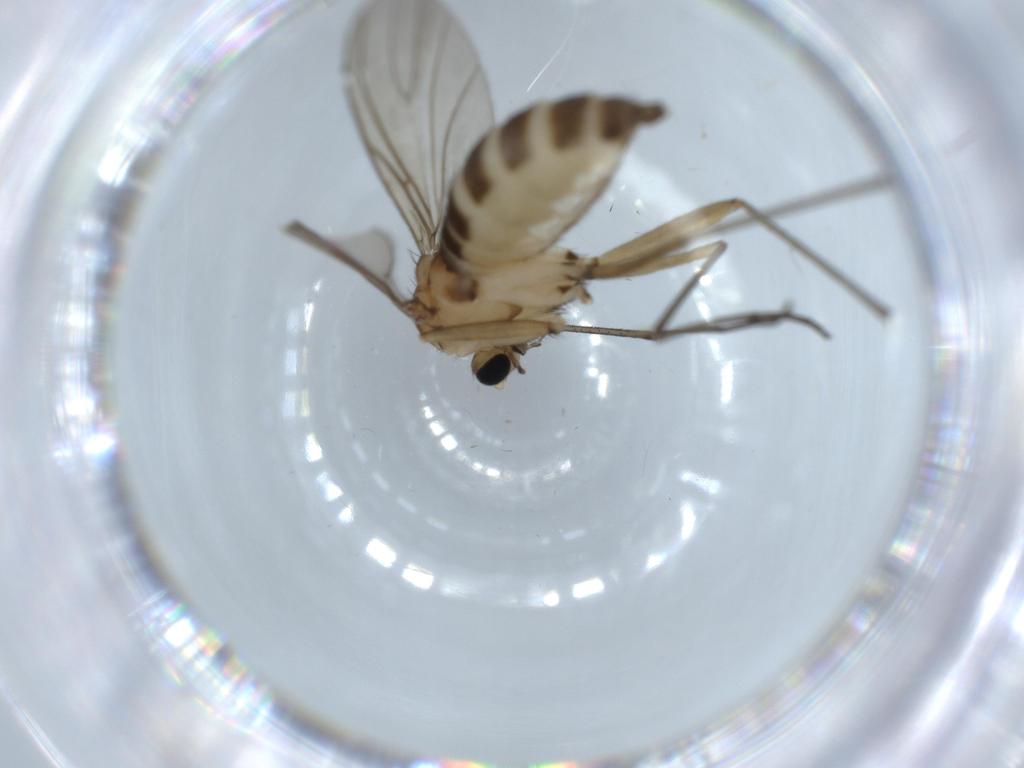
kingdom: Animalia
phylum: Arthropoda
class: Insecta
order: Diptera
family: Sciaridae
